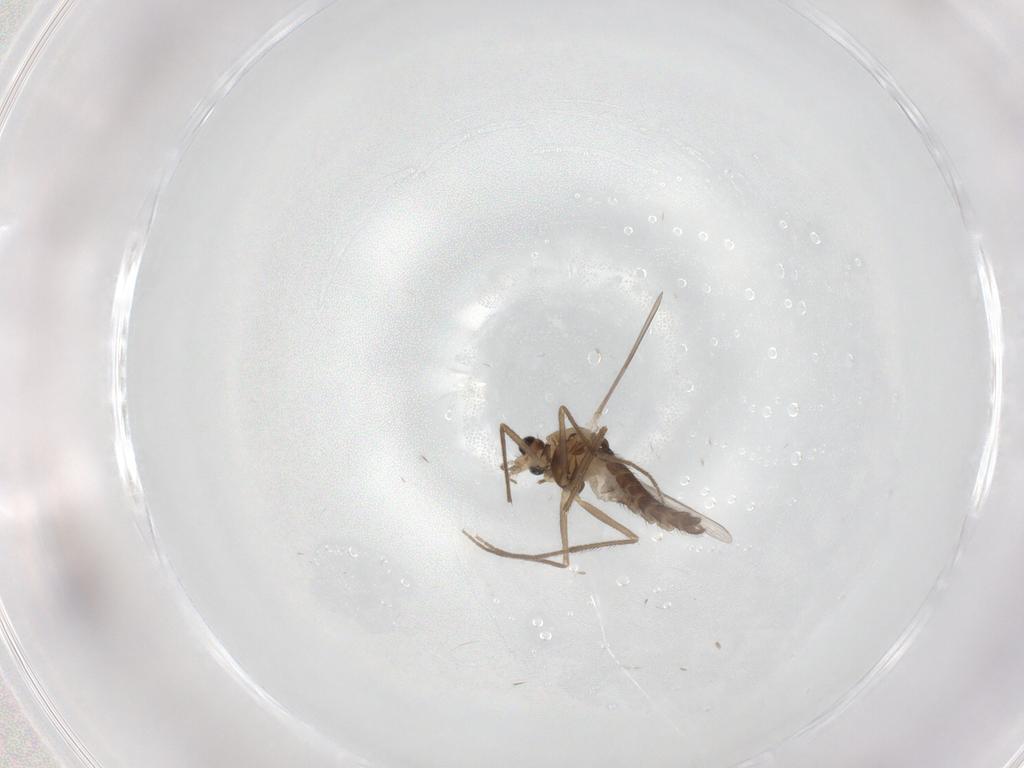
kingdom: Animalia
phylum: Arthropoda
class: Insecta
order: Diptera
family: Chironomidae
